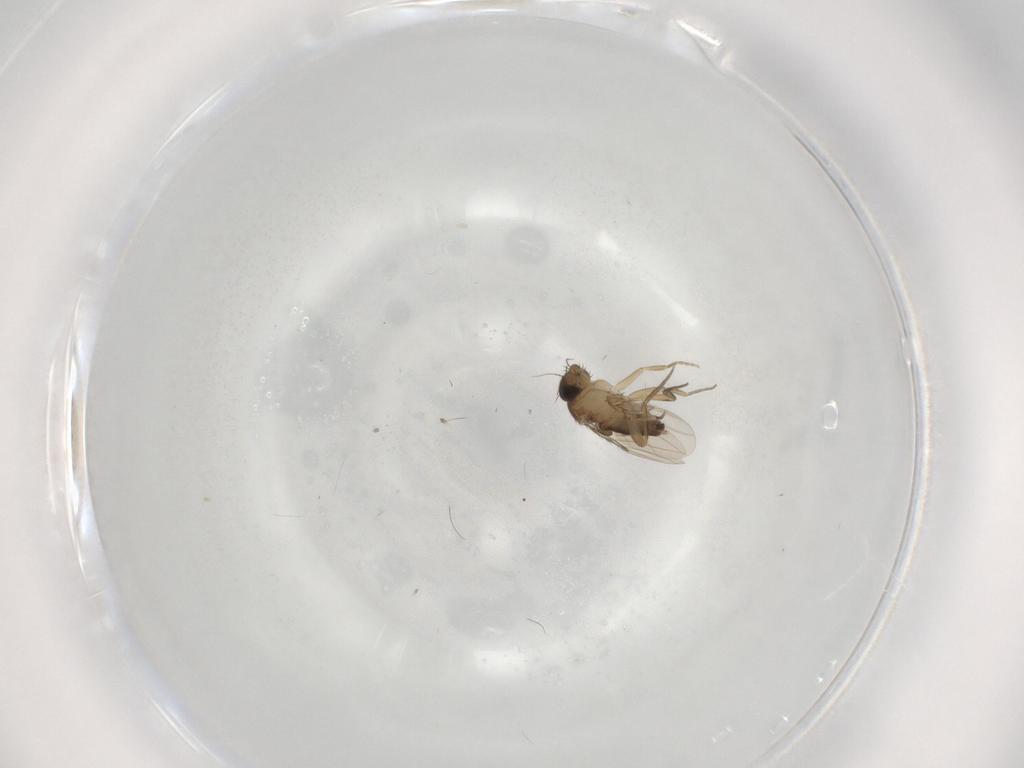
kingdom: Animalia
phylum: Arthropoda
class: Insecta
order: Diptera
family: Phoridae
